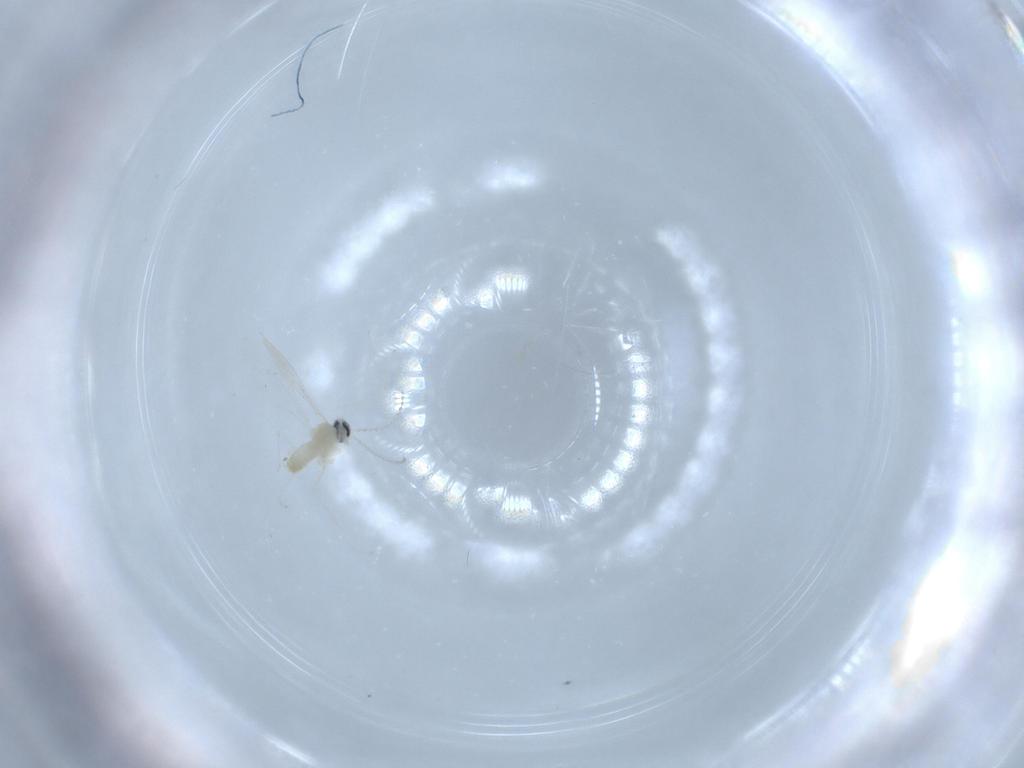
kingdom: Animalia
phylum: Arthropoda
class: Insecta
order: Diptera
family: Cecidomyiidae
